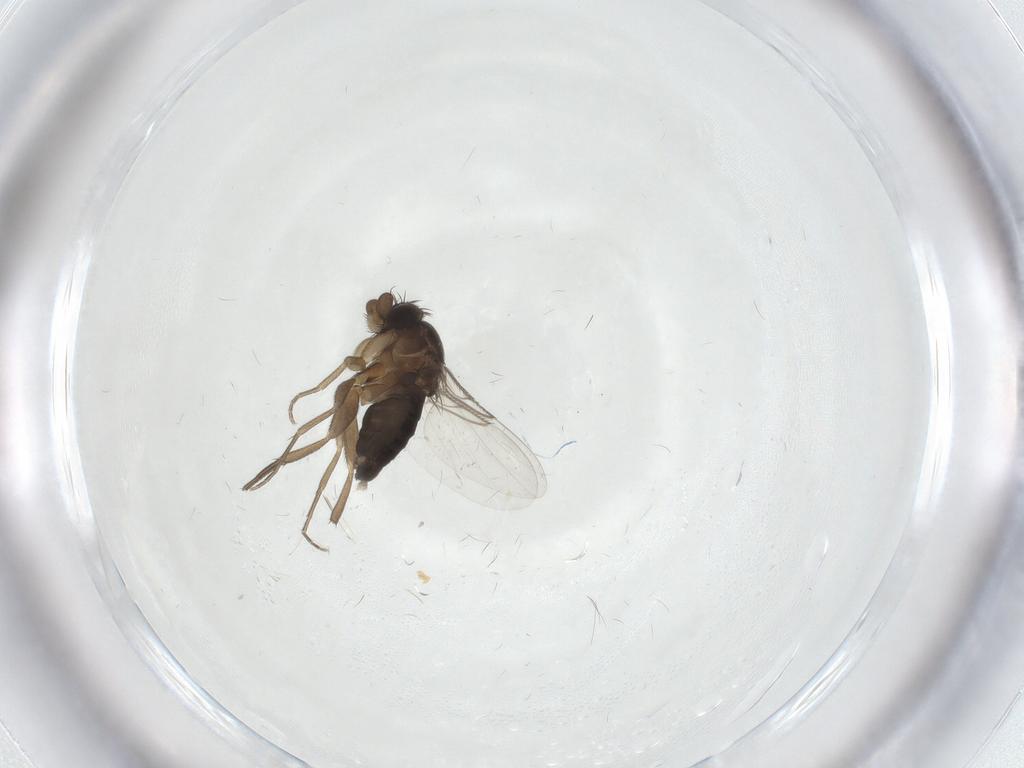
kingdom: Animalia
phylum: Arthropoda
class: Insecta
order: Diptera
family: Phoridae
